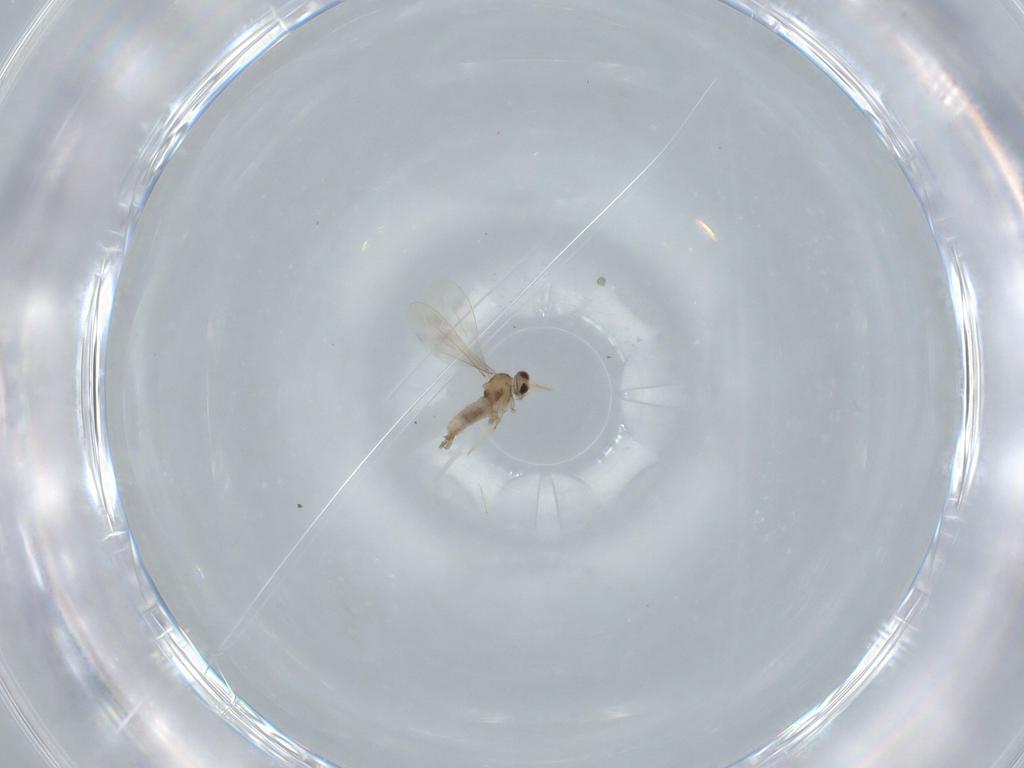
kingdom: Animalia
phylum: Arthropoda
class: Insecta
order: Diptera
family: Cecidomyiidae
